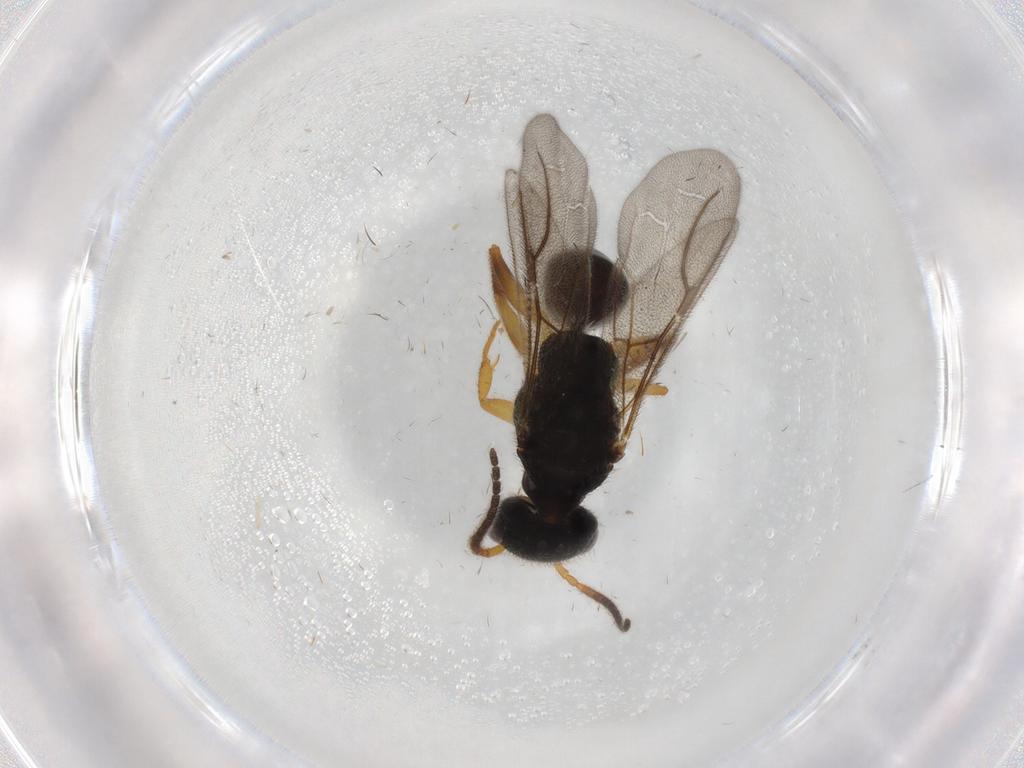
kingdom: Animalia
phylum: Arthropoda
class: Insecta
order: Hymenoptera
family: Bethylidae
